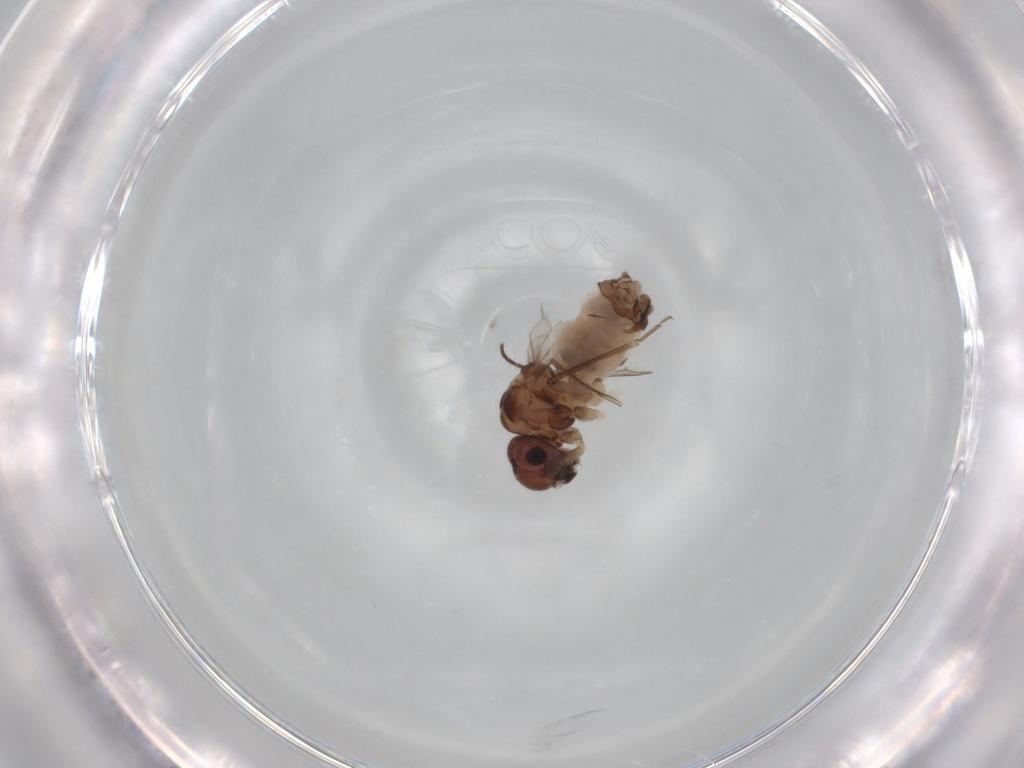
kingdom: Animalia
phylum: Arthropoda
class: Insecta
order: Psocodea
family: Peripsocidae
